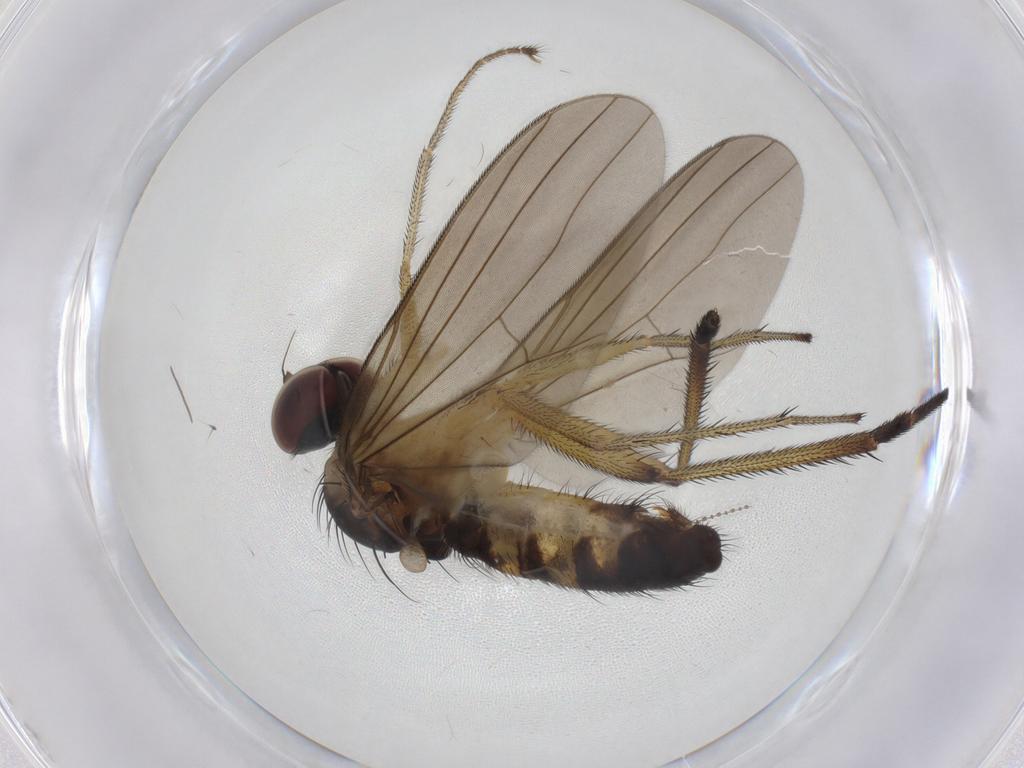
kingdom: Animalia
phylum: Arthropoda
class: Insecta
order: Diptera
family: Dolichopodidae
